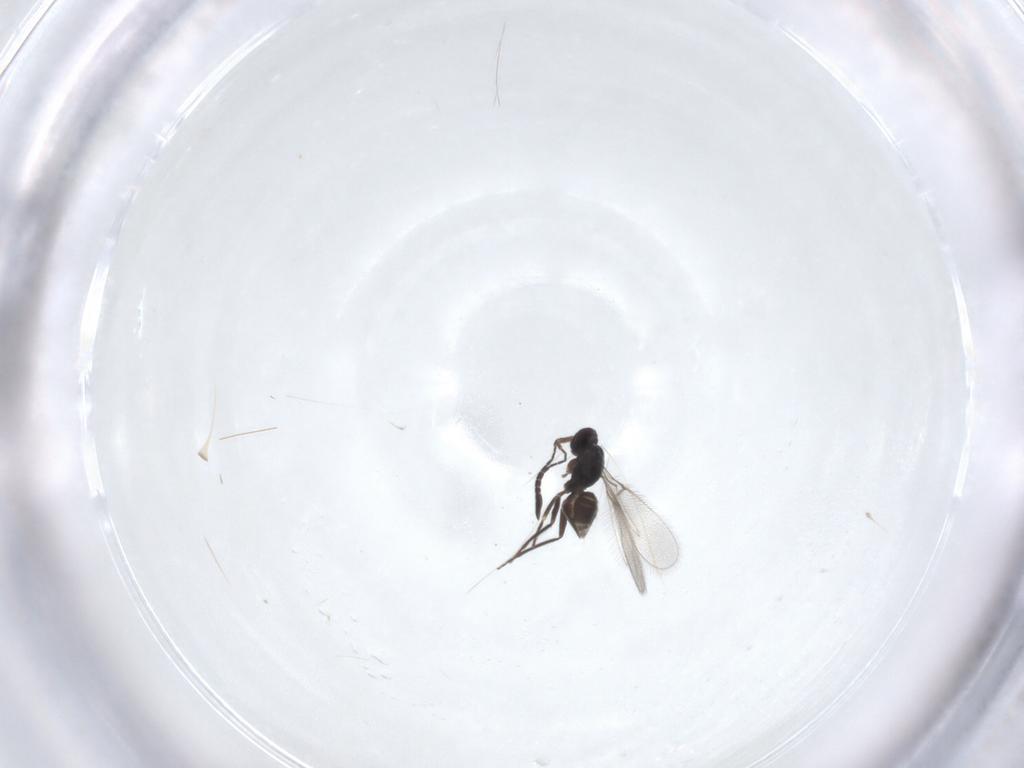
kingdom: Animalia
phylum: Arthropoda
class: Insecta
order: Hymenoptera
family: Mymaridae
